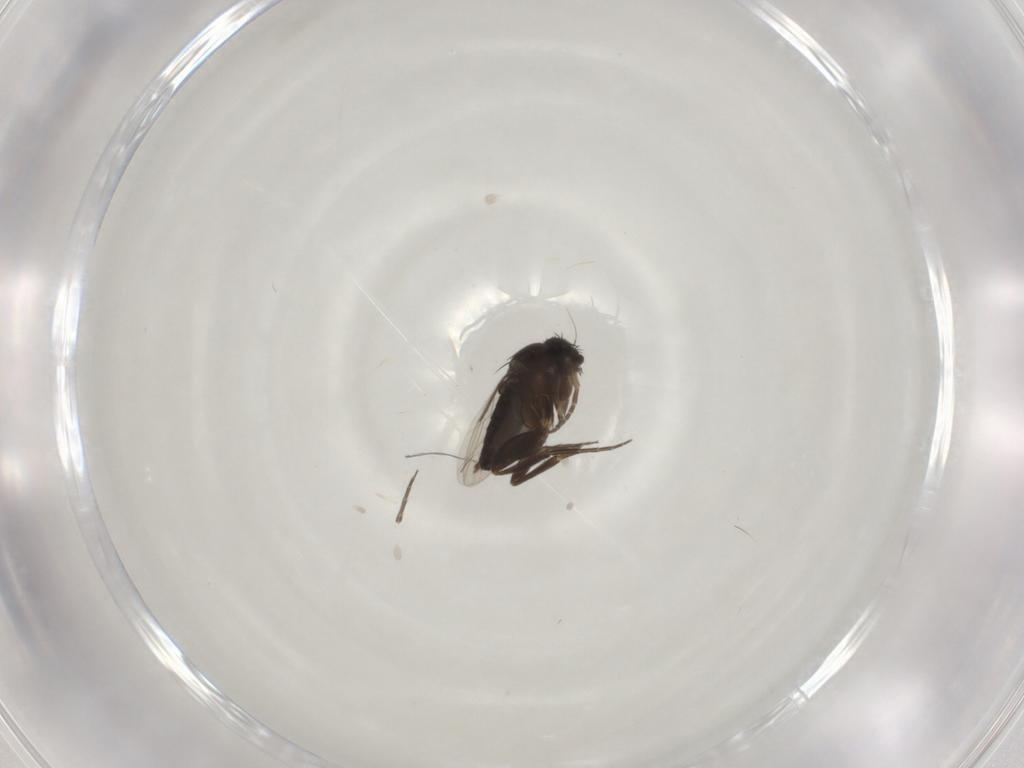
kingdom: Animalia
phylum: Arthropoda
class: Insecta
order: Diptera
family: Phoridae
